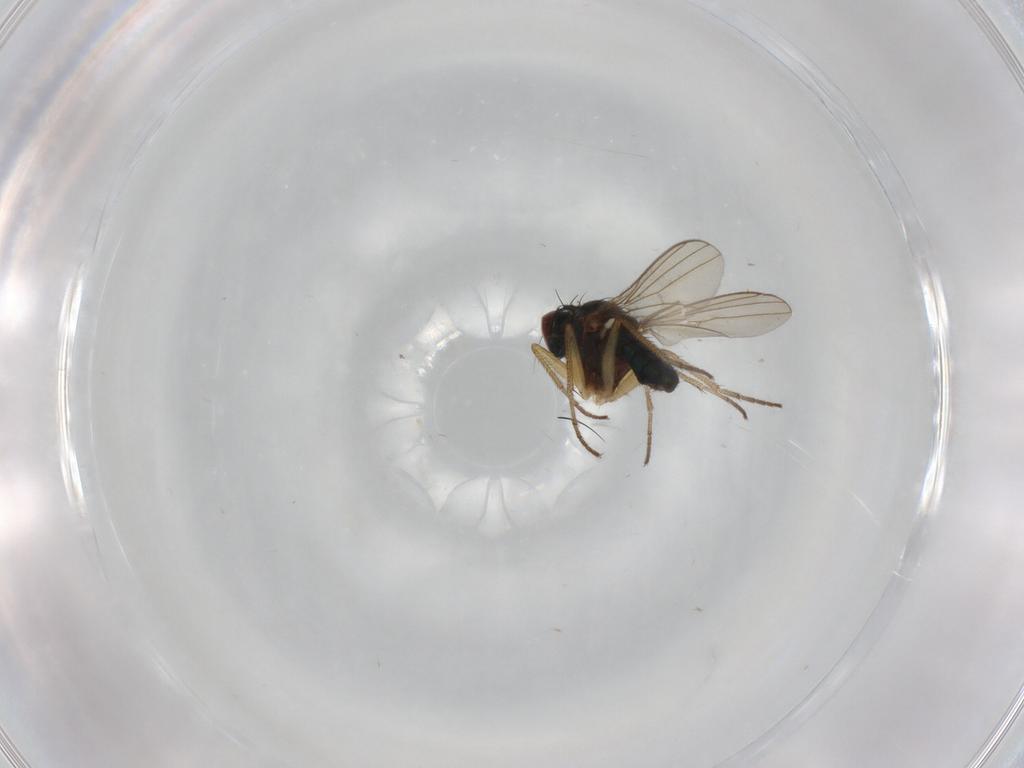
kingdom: Animalia
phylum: Arthropoda
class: Insecta
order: Diptera
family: Dolichopodidae
